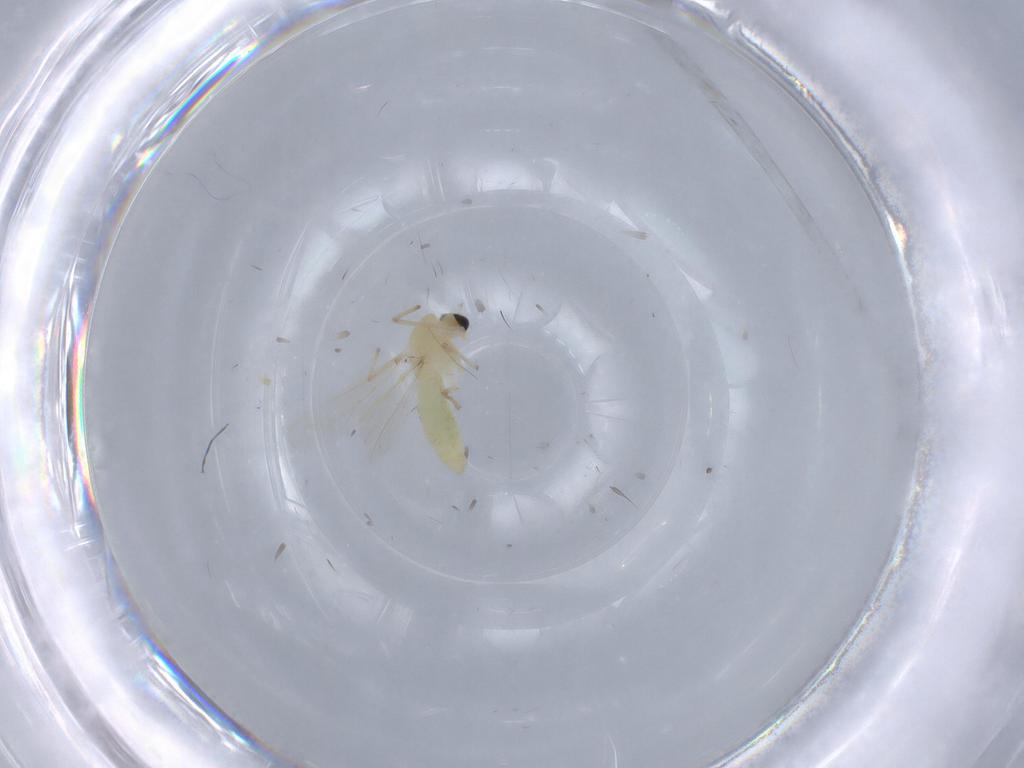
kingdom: Animalia
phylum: Arthropoda
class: Insecta
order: Diptera
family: Chironomidae
